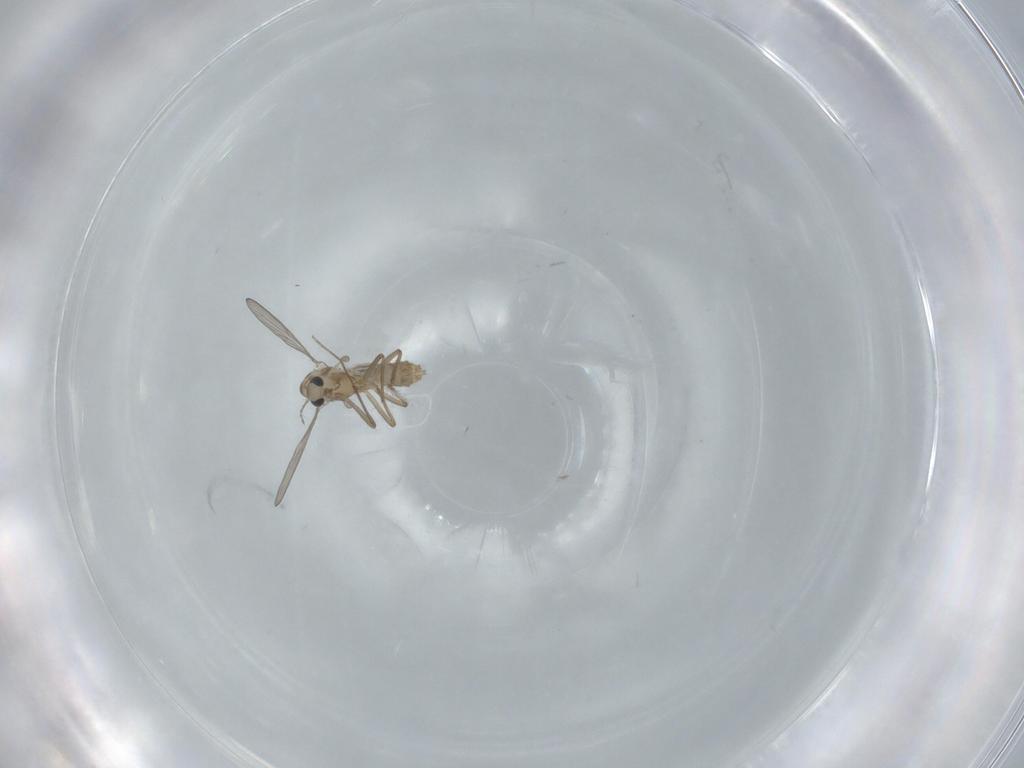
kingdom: Animalia
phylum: Arthropoda
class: Insecta
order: Diptera
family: Chironomidae
